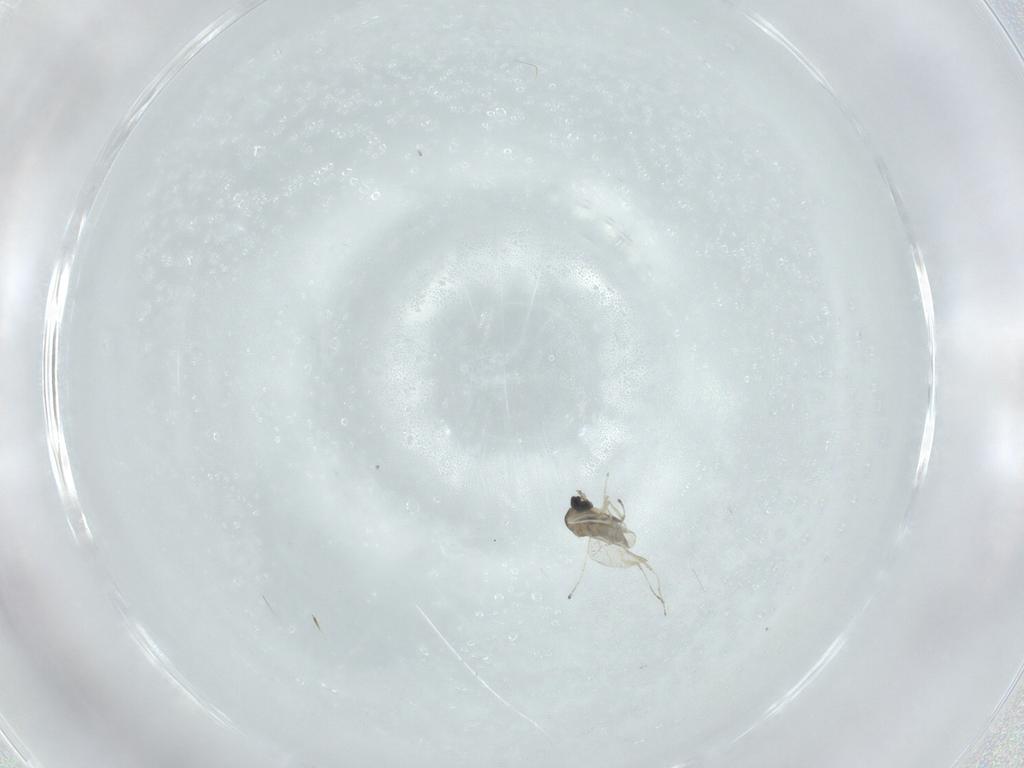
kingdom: Animalia
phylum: Arthropoda
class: Insecta
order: Diptera
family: Cecidomyiidae
